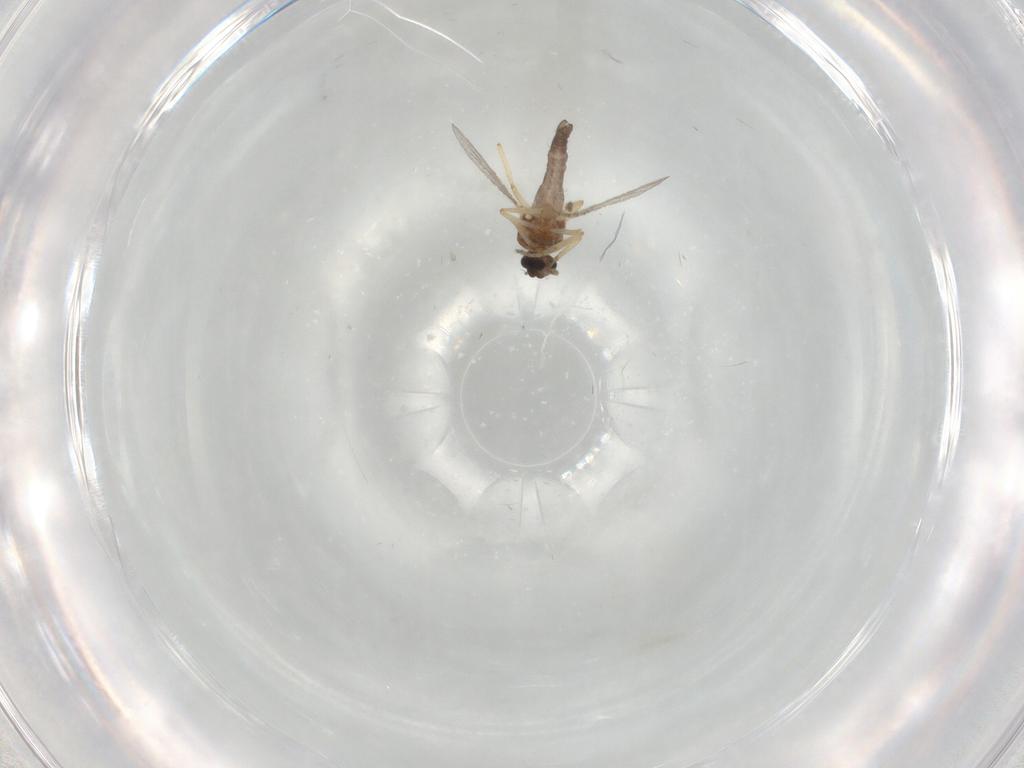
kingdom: Animalia
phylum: Arthropoda
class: Insecta
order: Diptera
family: Ceratopogonidae
